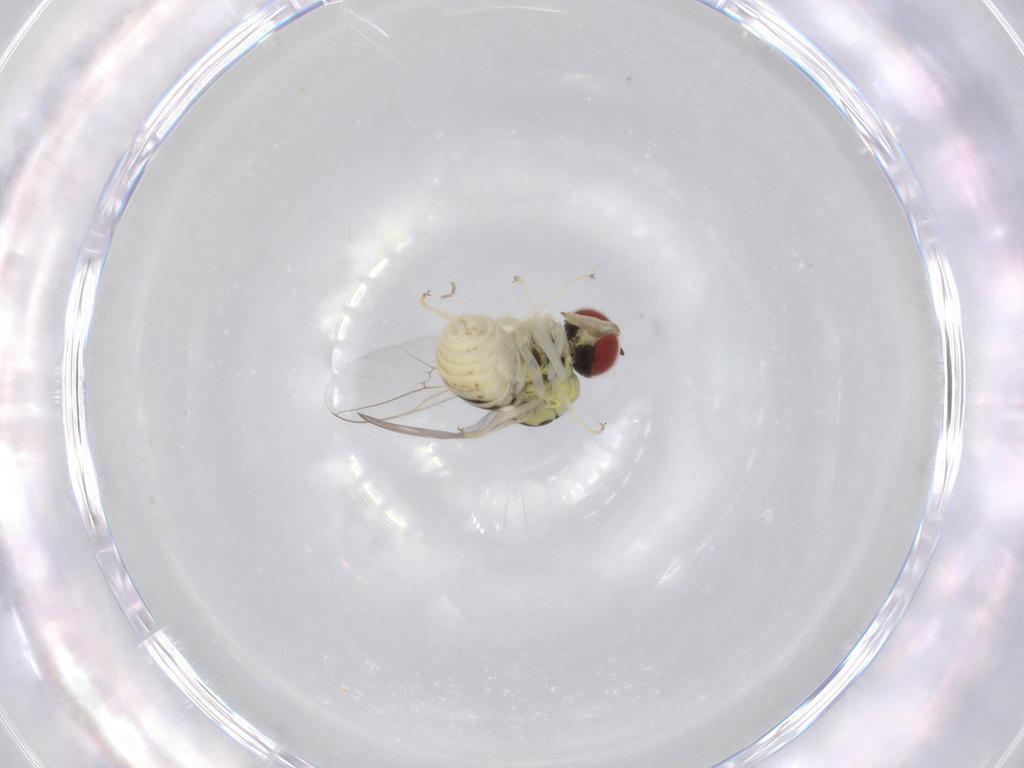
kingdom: Animalia
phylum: Arthropoda
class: Insecta
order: Diptera
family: Bombyliidae
